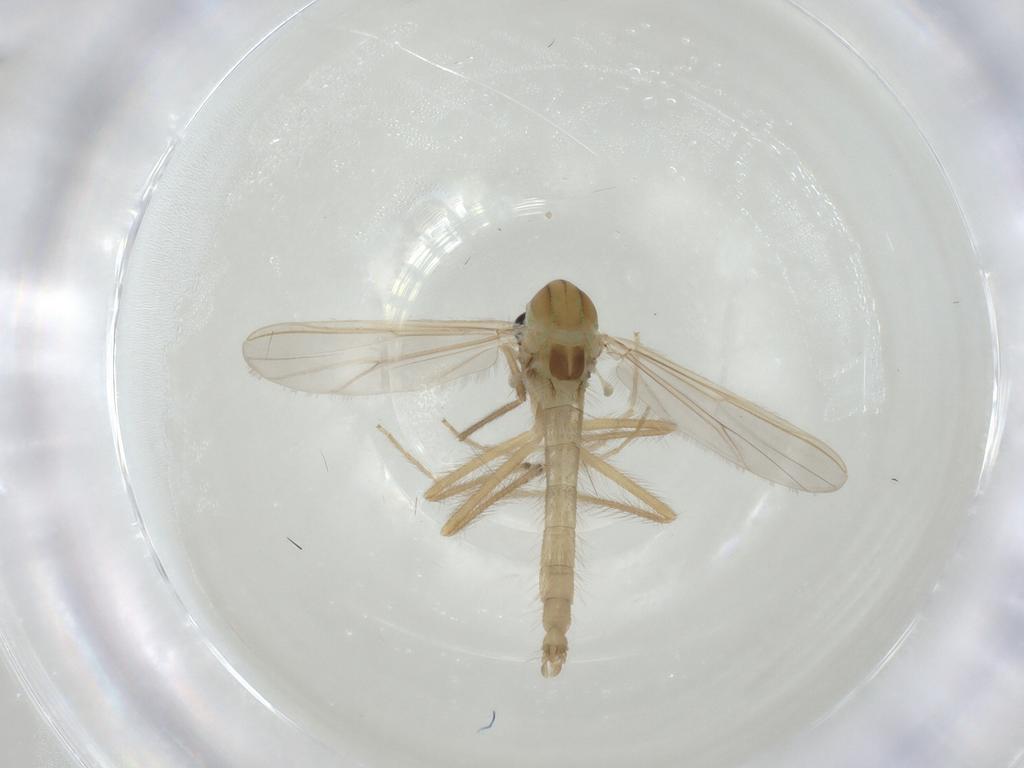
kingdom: Animalia
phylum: Arthropoda
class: Insecta
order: Diptera
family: Chironomidae
